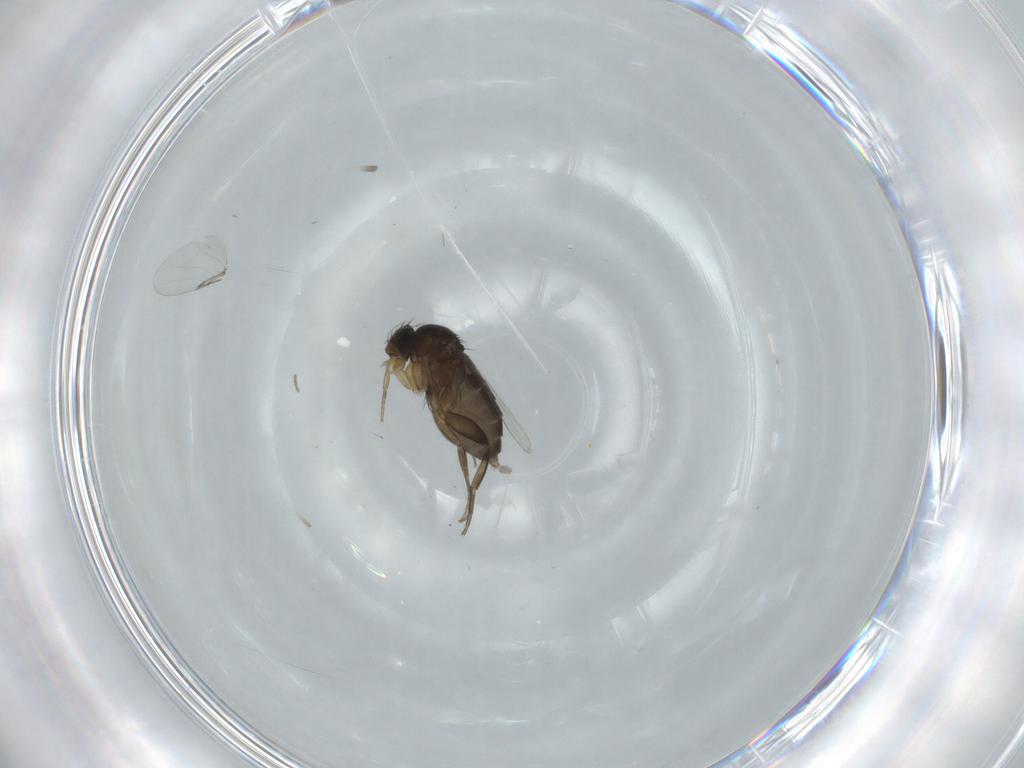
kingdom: Animalia
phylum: Arthropoda
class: Insecta
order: Diptera
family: Phoridae
